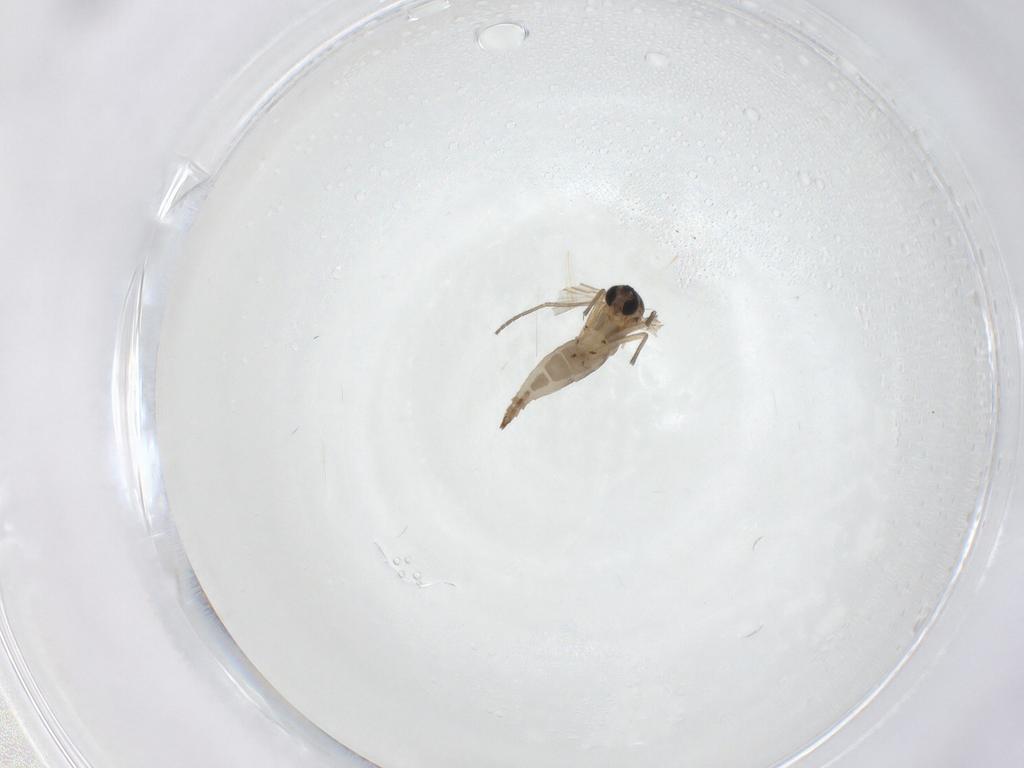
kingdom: Animalia
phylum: Arthropoda
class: Insecta
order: Diptera
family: Sciaridae
